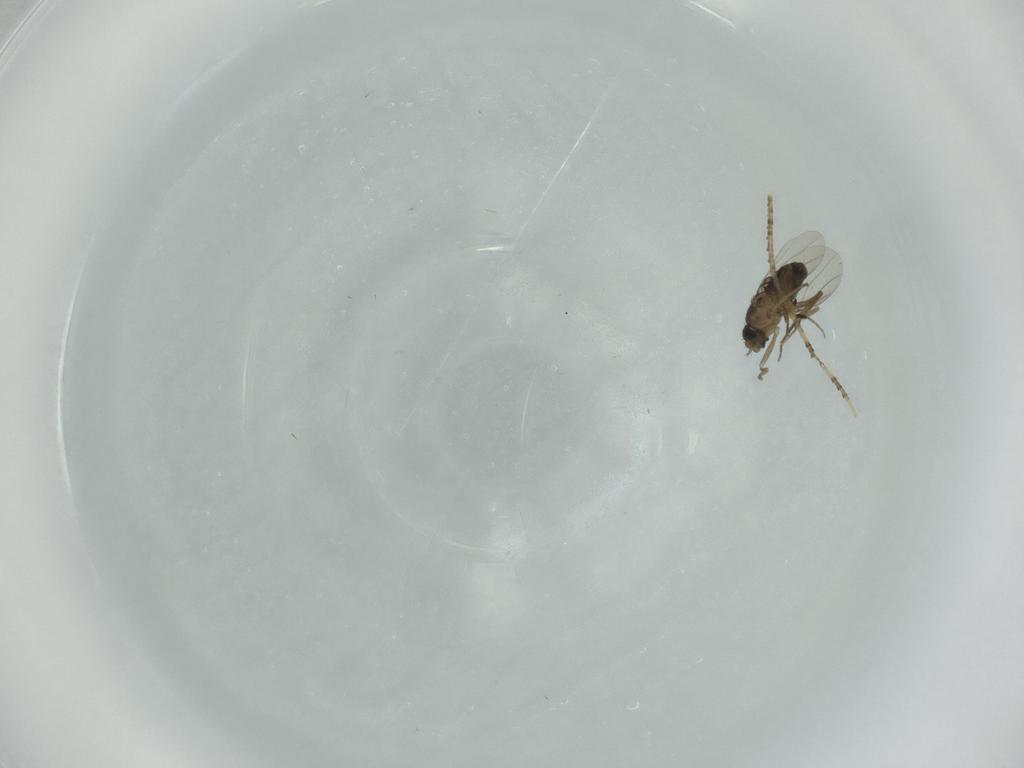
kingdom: Animalia
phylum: Arthropoda
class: Insecta
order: Diptera
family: Phoridae
